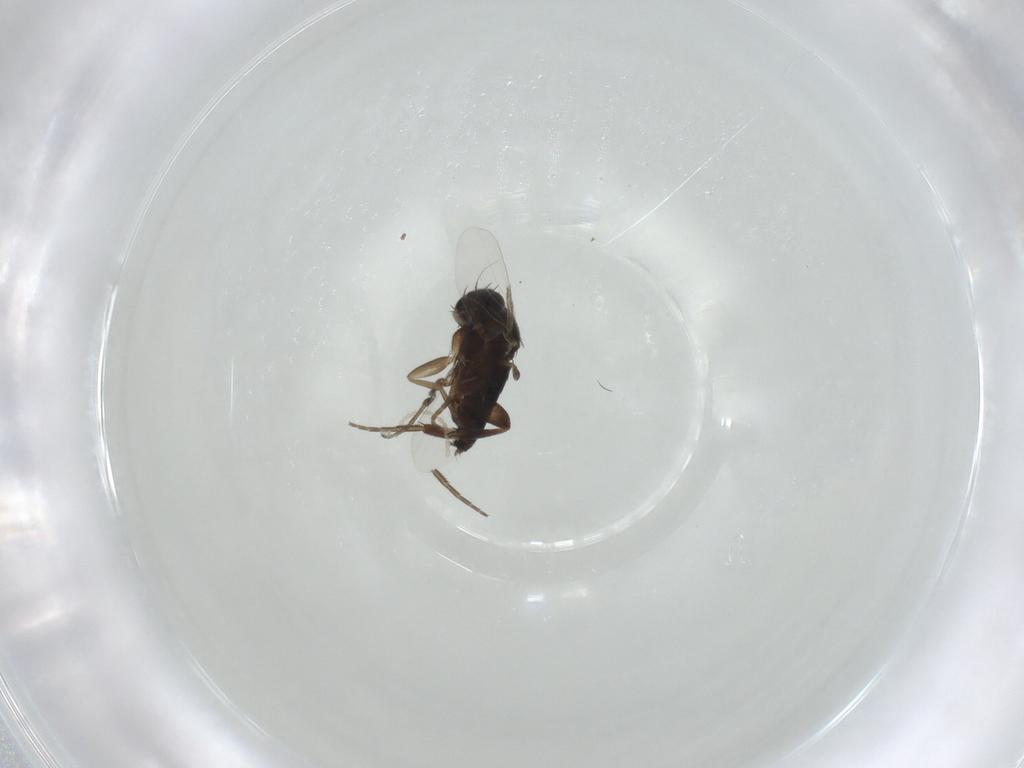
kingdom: Animalia
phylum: Arthropoda
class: Insecta
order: Diptera
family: Phoridae
